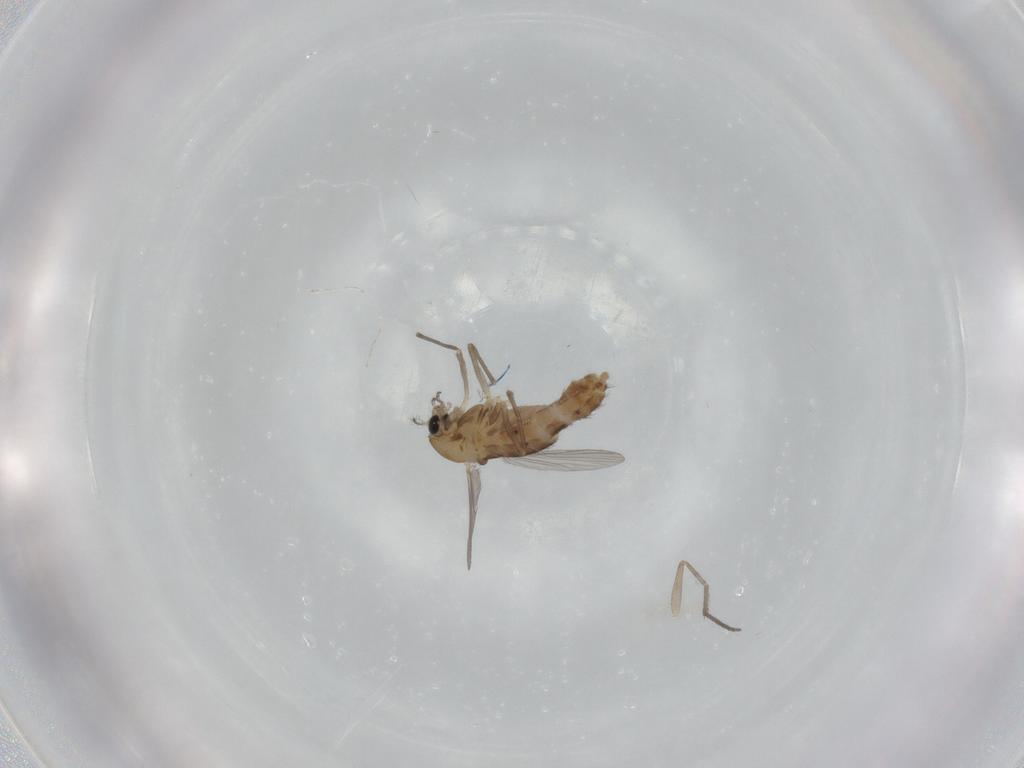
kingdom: Animalia
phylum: Arthropoda
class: Insecta
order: Diptera
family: Chironomidae
